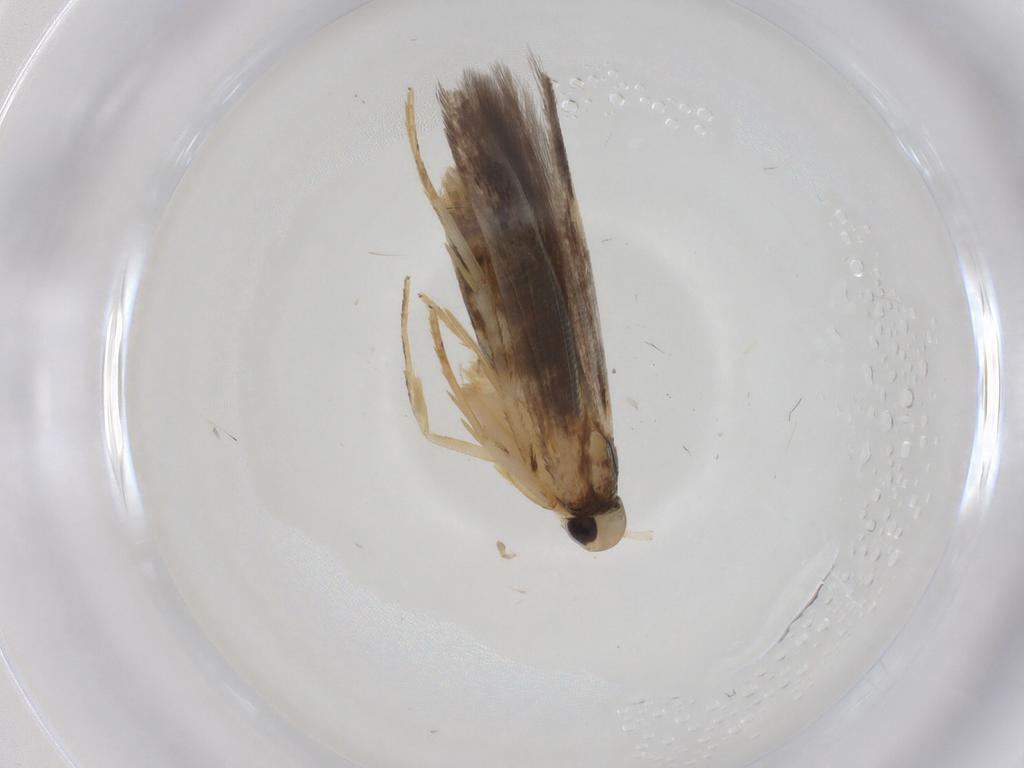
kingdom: Animalia
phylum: Arthropoda
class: Insecta
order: Lepidoptera
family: Cosmopterigidae
